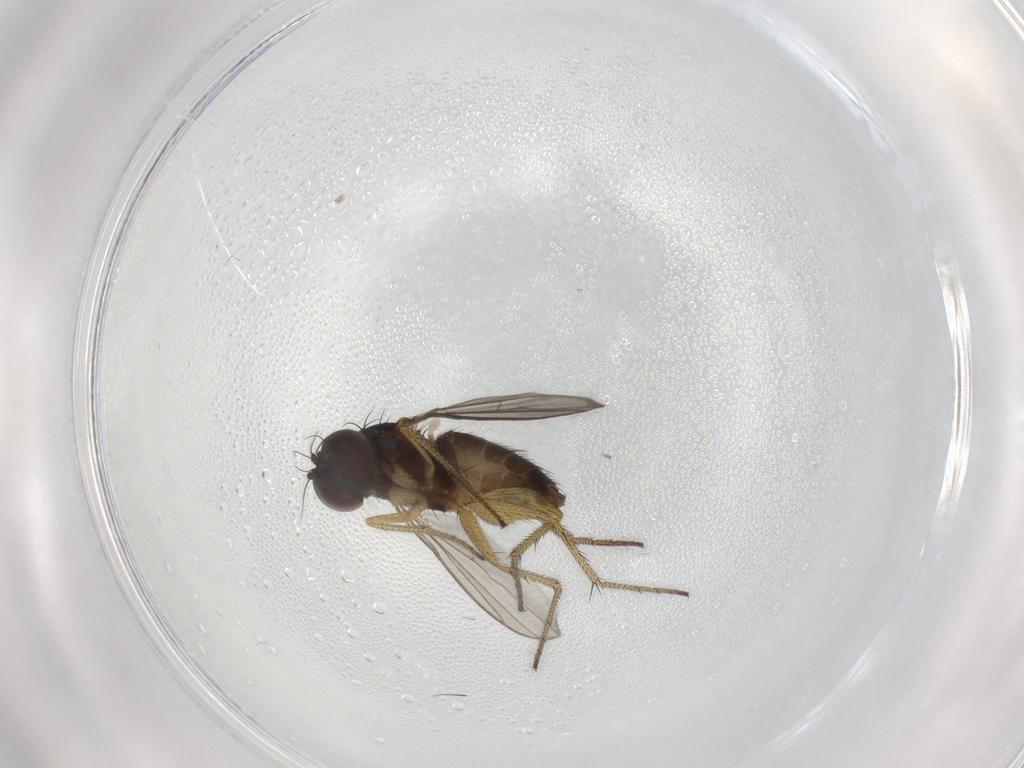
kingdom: Animalia
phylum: Arthropoda
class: Insecta
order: Diptera
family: Dolichopodidae
